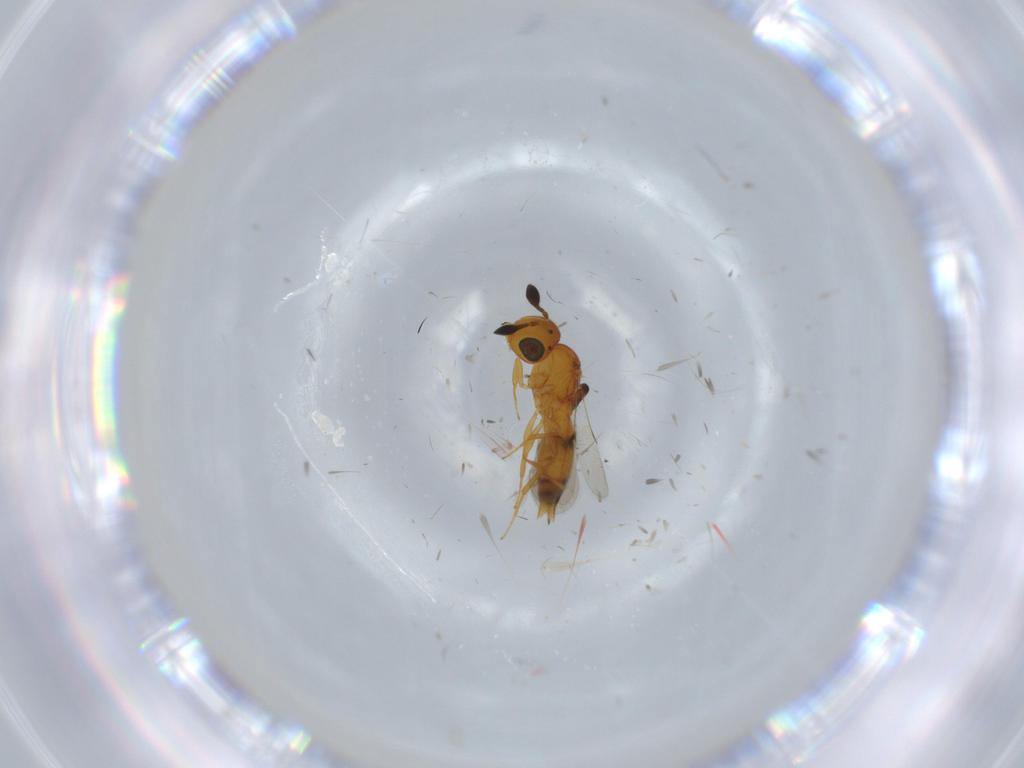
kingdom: Animalia
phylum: Arthropoda
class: Insecta
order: Hymenoptera
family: Scelionidae
